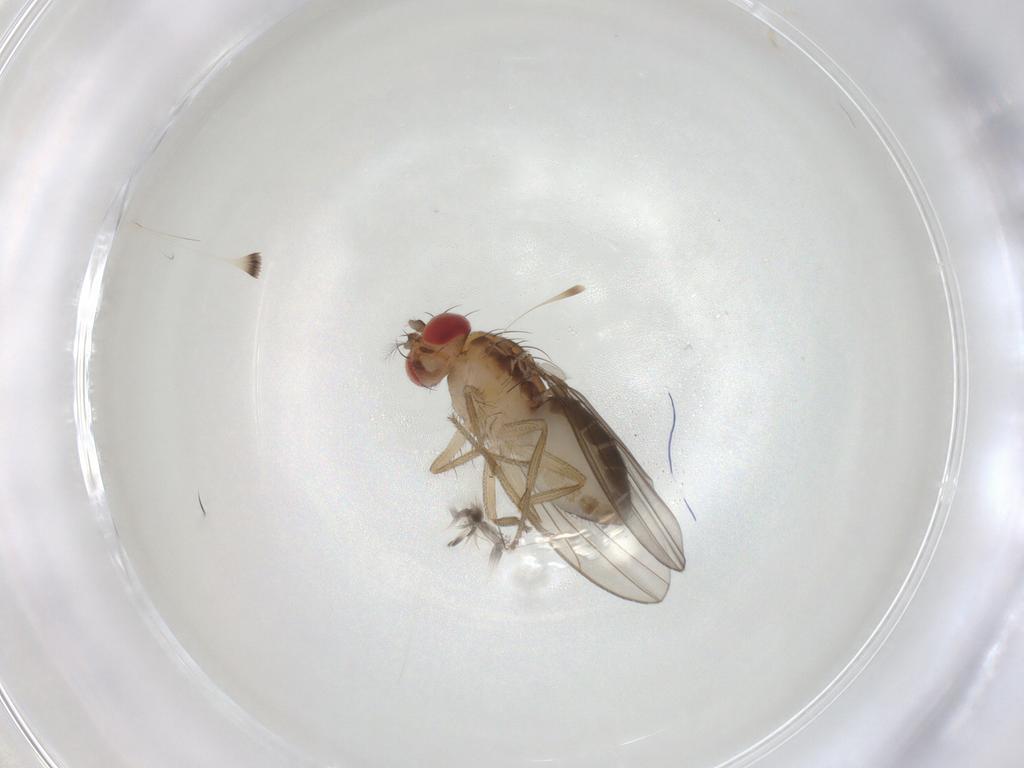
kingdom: Animalia
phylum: Arthropoda
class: Insecta
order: Diptera
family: Drosophilidae
